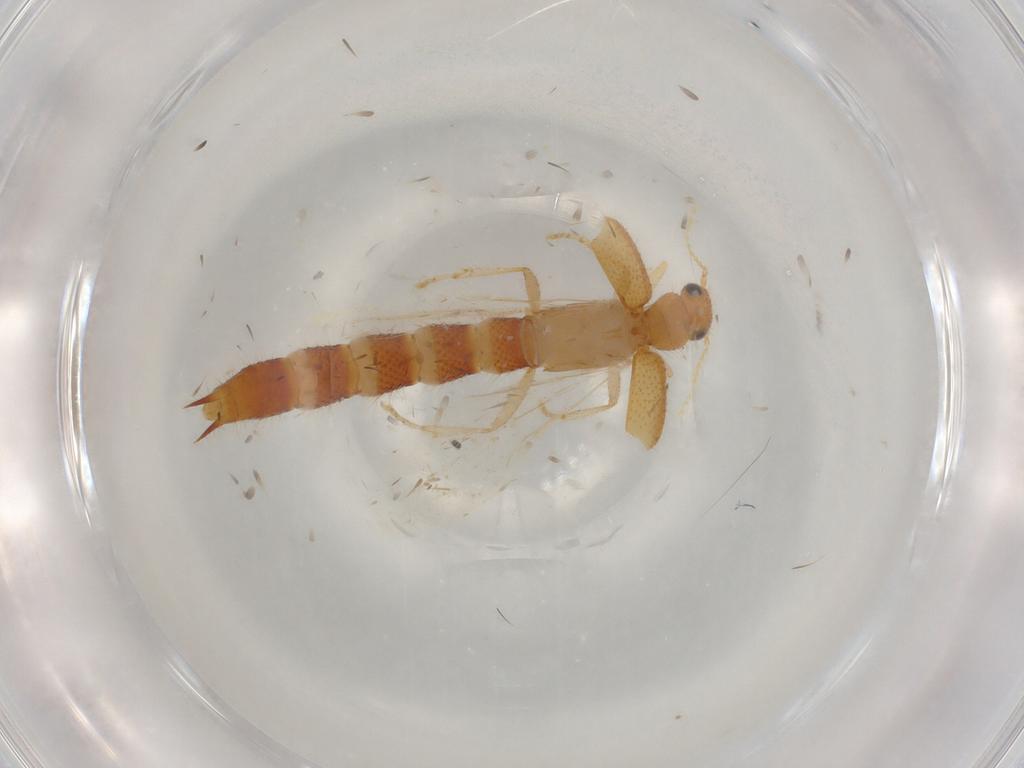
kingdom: Animalia
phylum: Arthropoda
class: Insecta
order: Coleoptera
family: Staphylinidae
